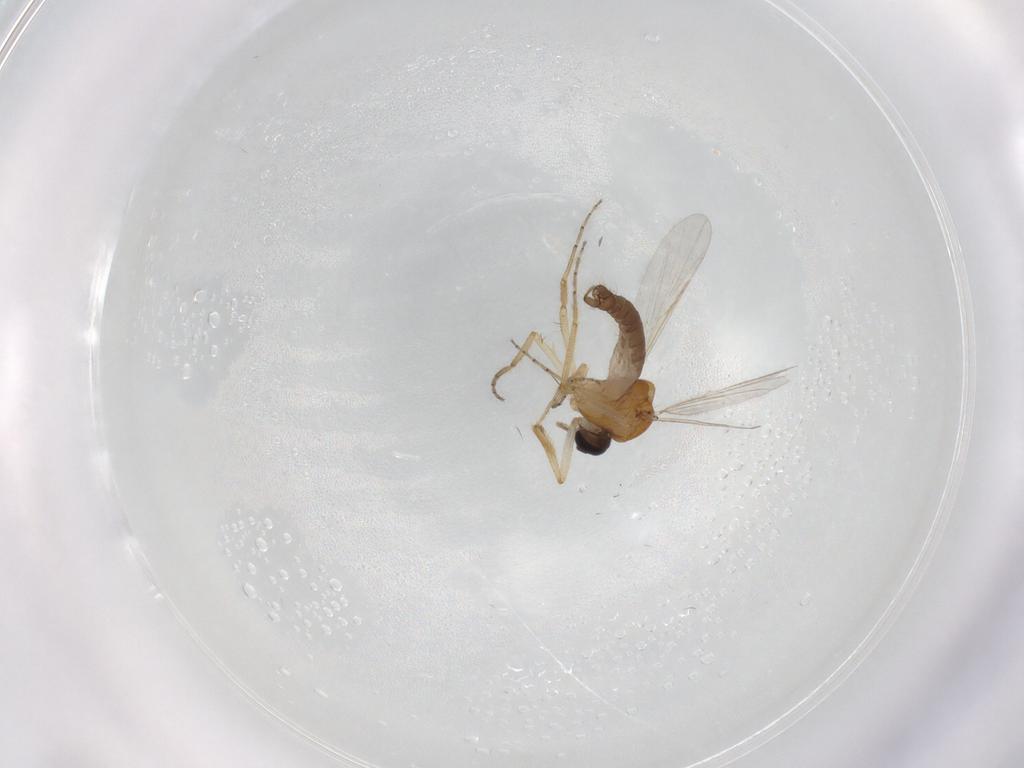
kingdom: Animalia
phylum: Arthropoda
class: Insecta
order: Diptera
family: Ceratopogonidae
